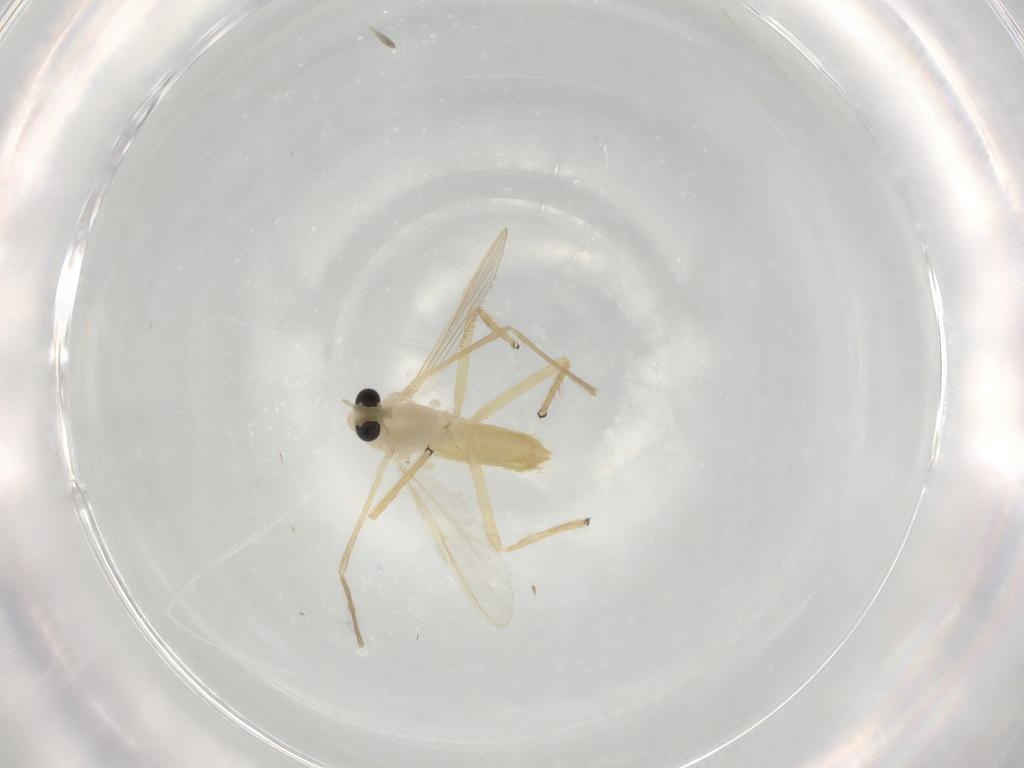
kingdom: Animalia
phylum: Arthropoda
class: Insecta
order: Diptera
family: Chironomidae
